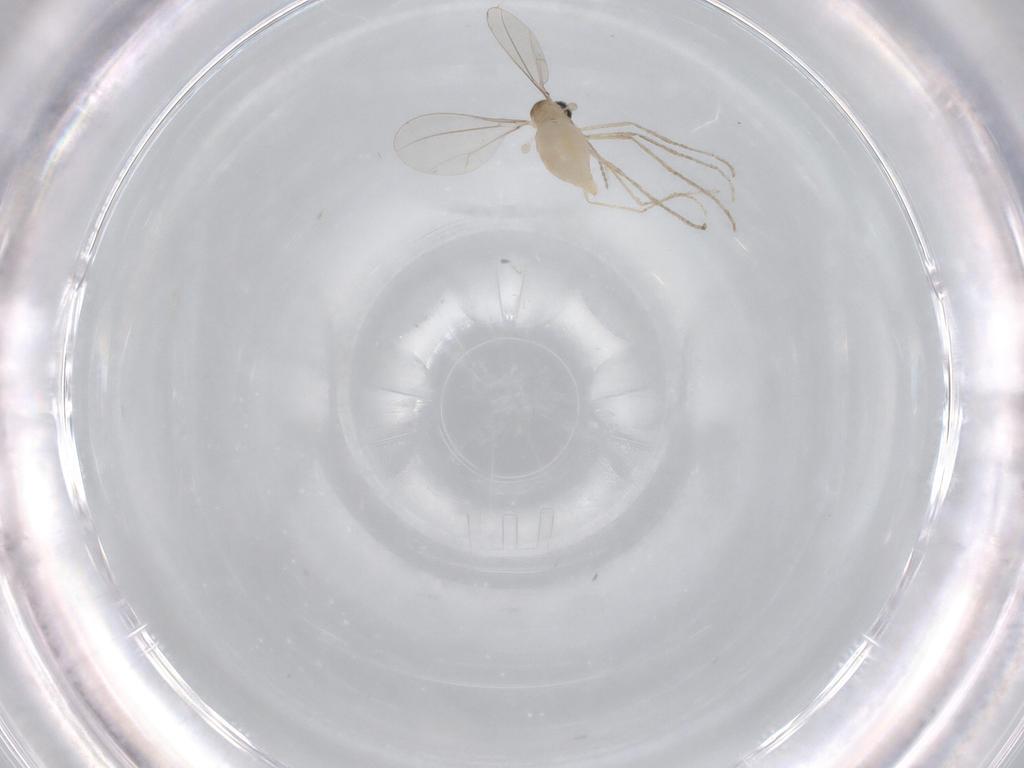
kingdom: Animalia
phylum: Arthropoda
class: Insecta
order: Diptera
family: Cecidomyiidae
